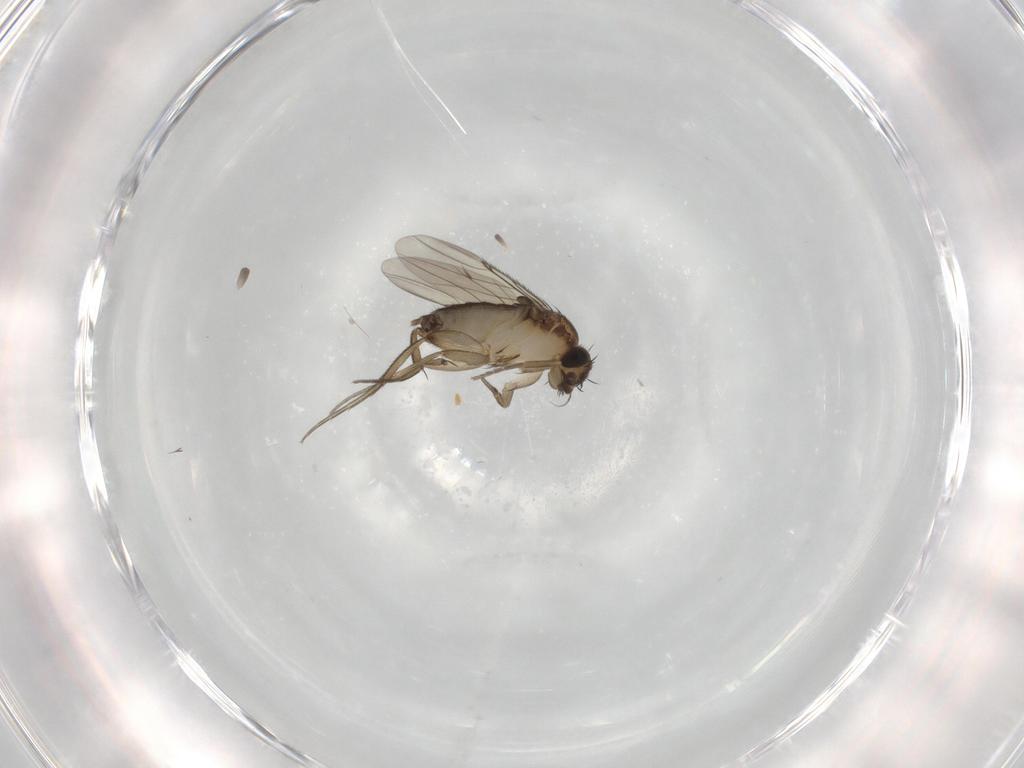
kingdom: Animalia
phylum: Arthropoda
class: Insecta
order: Diptera
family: Phoridae
